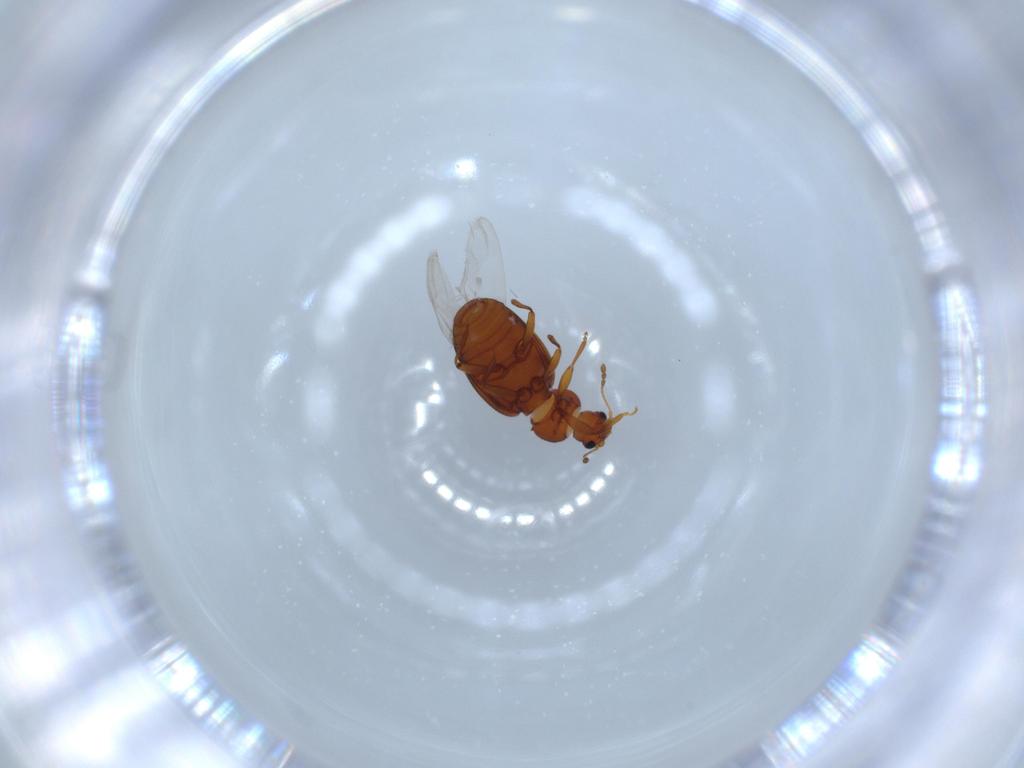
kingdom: Animalia
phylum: Arthropoda
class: Insecta
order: Coleoptera
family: Latridiidae
